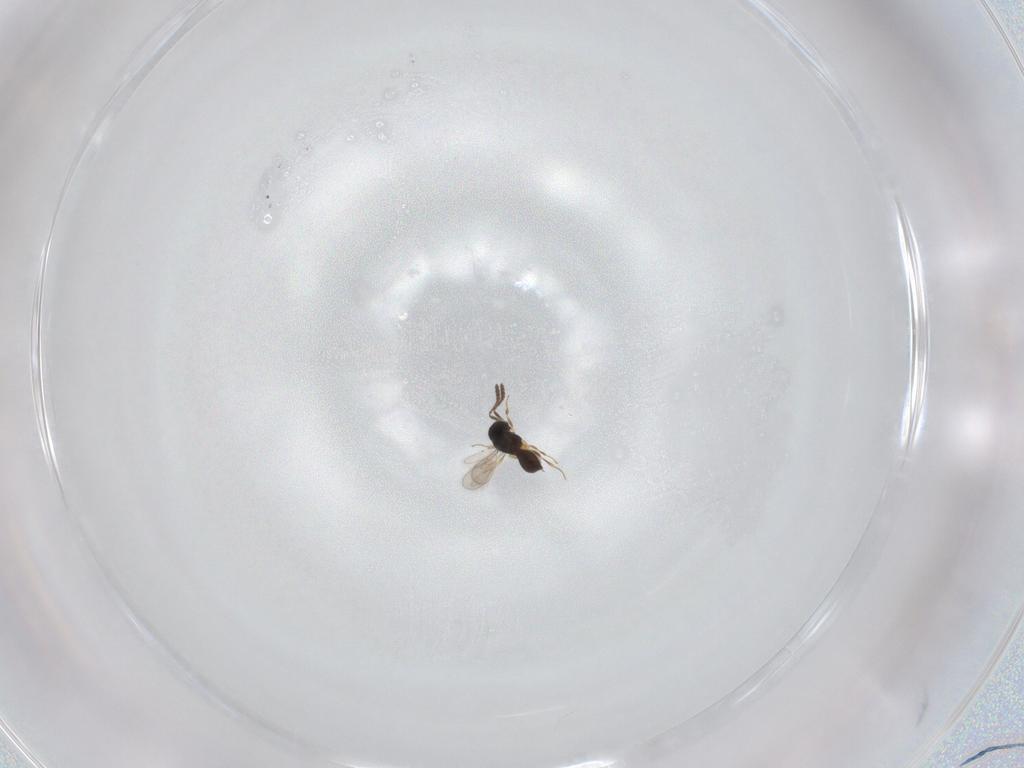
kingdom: Animalia
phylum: Arthropoda
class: Insecta
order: Hymenoptera
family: Scelionidae
